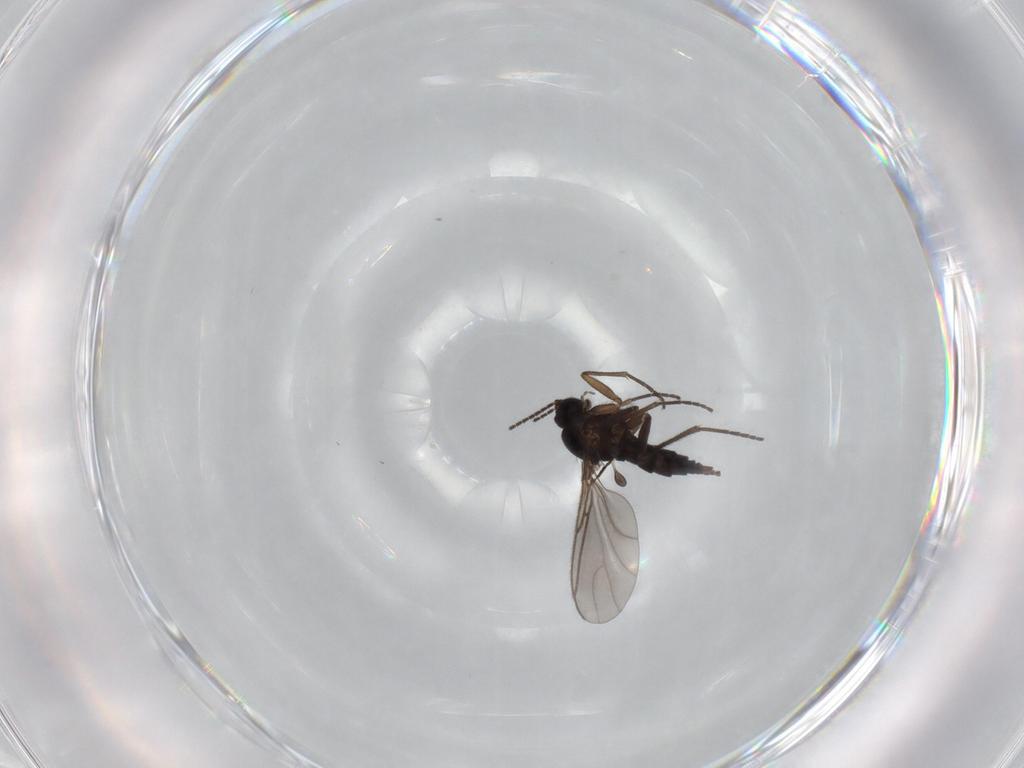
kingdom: Animalia
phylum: Arthropoda
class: Insecta
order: Diptera
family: Sciaridae
